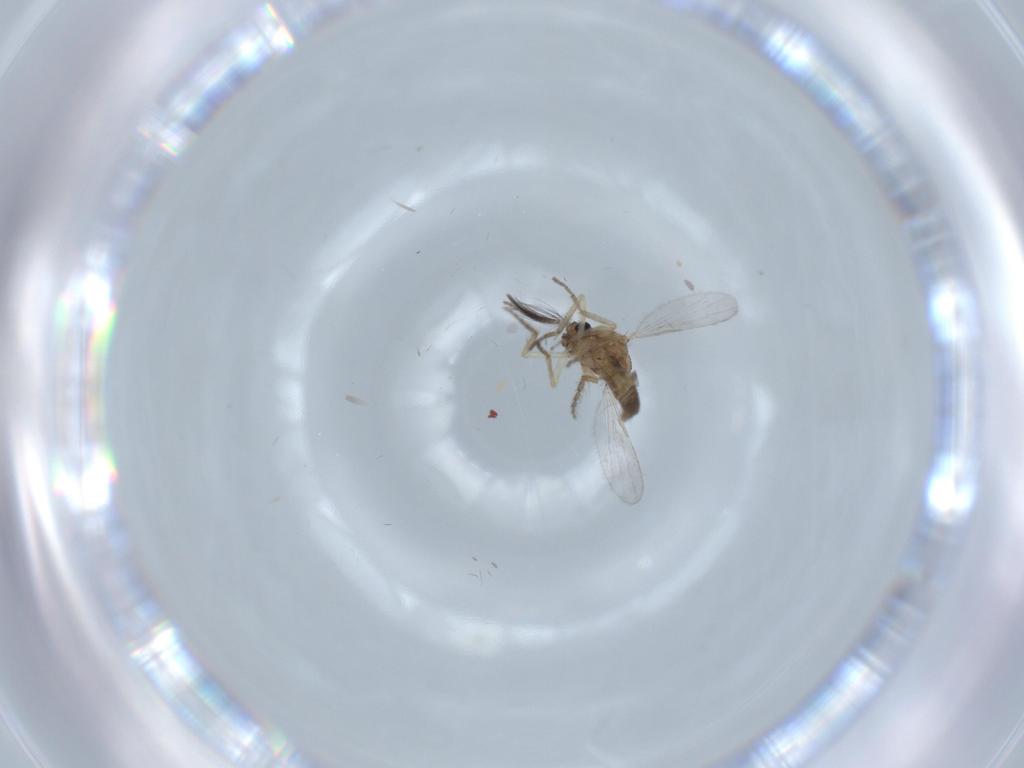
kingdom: Animalia
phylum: Arthropoda
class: Insecta
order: Diptera
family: Ceratopogonidae
